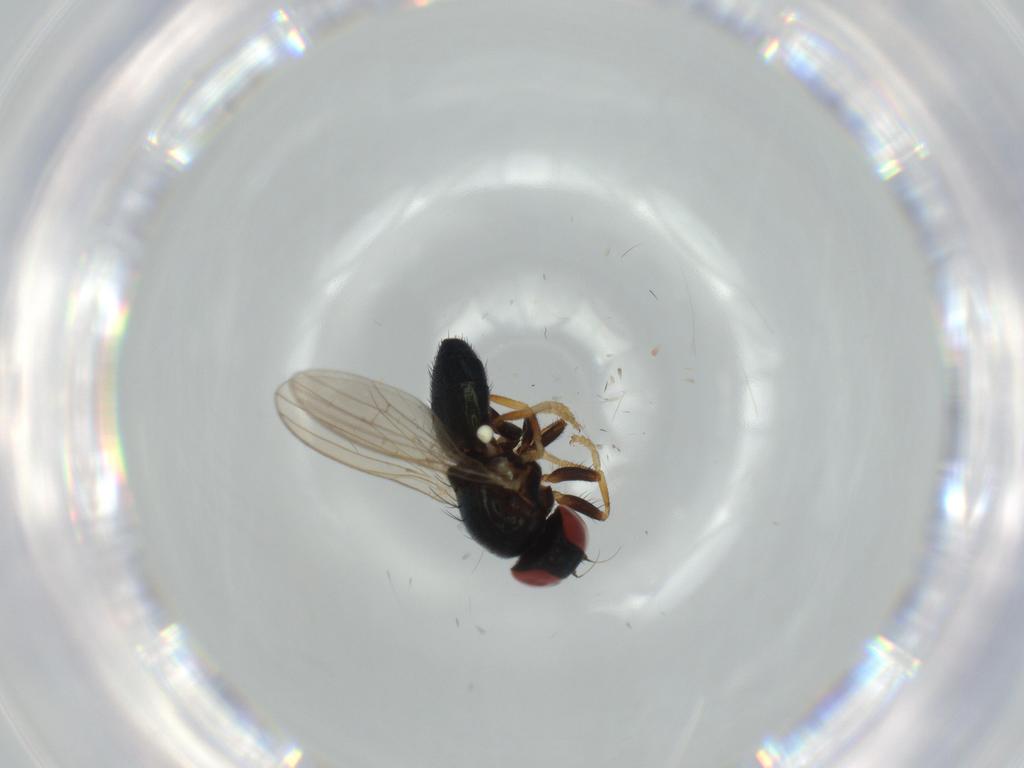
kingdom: Animalia
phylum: Arthropoda
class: Insecta
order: Diptera
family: Chamaemyiidae
